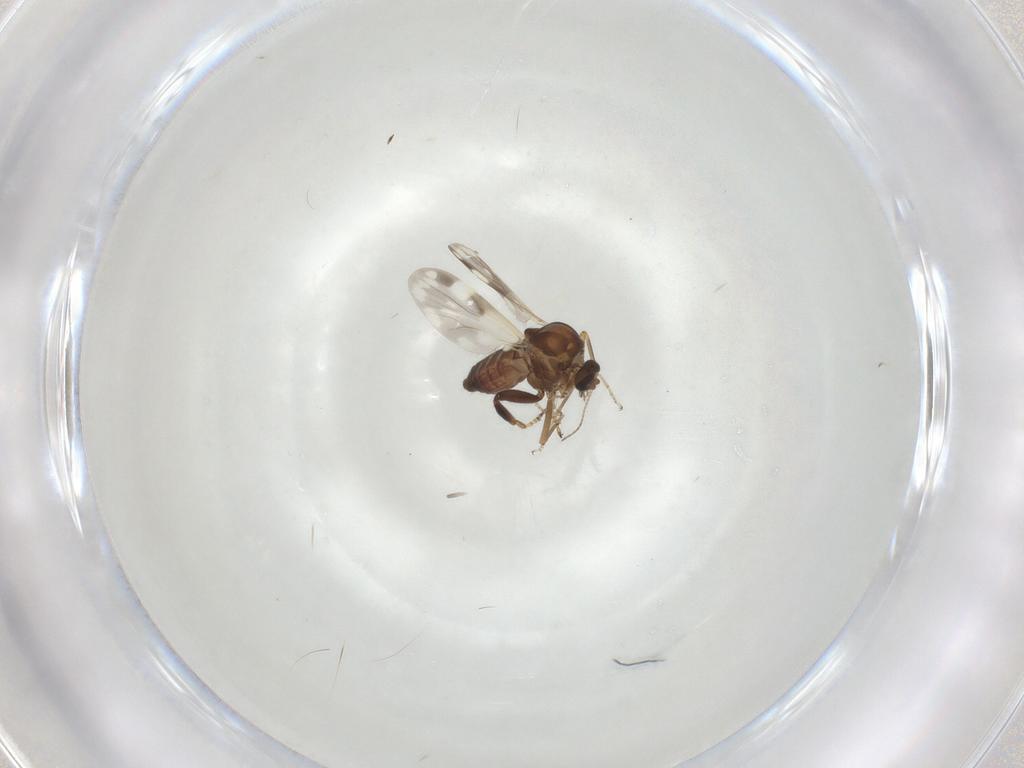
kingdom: Animalia
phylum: Arthropoda
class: Insecta
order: Diptera
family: Ceratopogonidae
